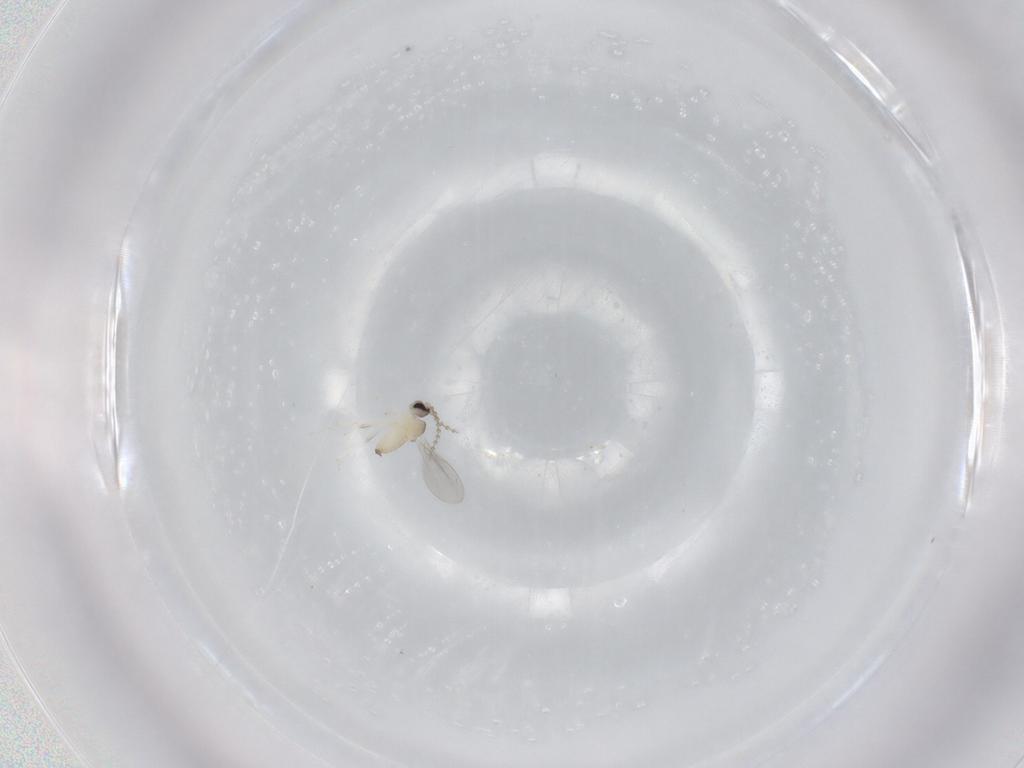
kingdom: Animalia
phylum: Arthropoda
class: Insecta
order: Diptera
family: Cecidomyiidae
